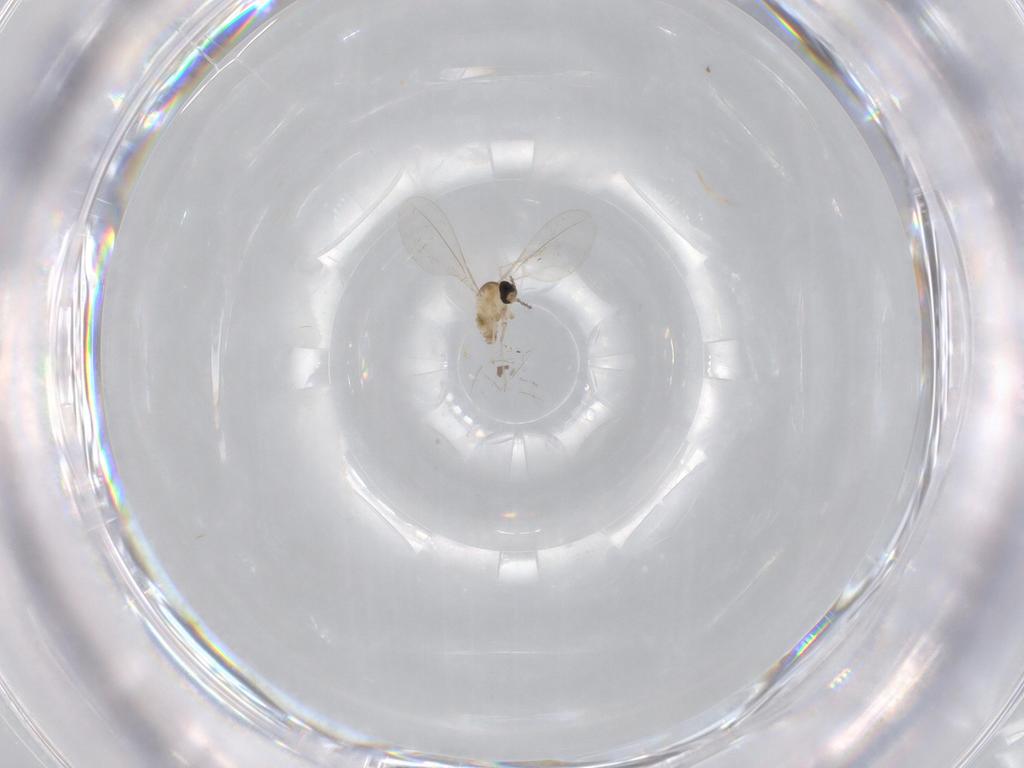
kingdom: Animalia
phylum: Arthropoda
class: Insecta
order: Diptera
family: Cecidomyiidae
